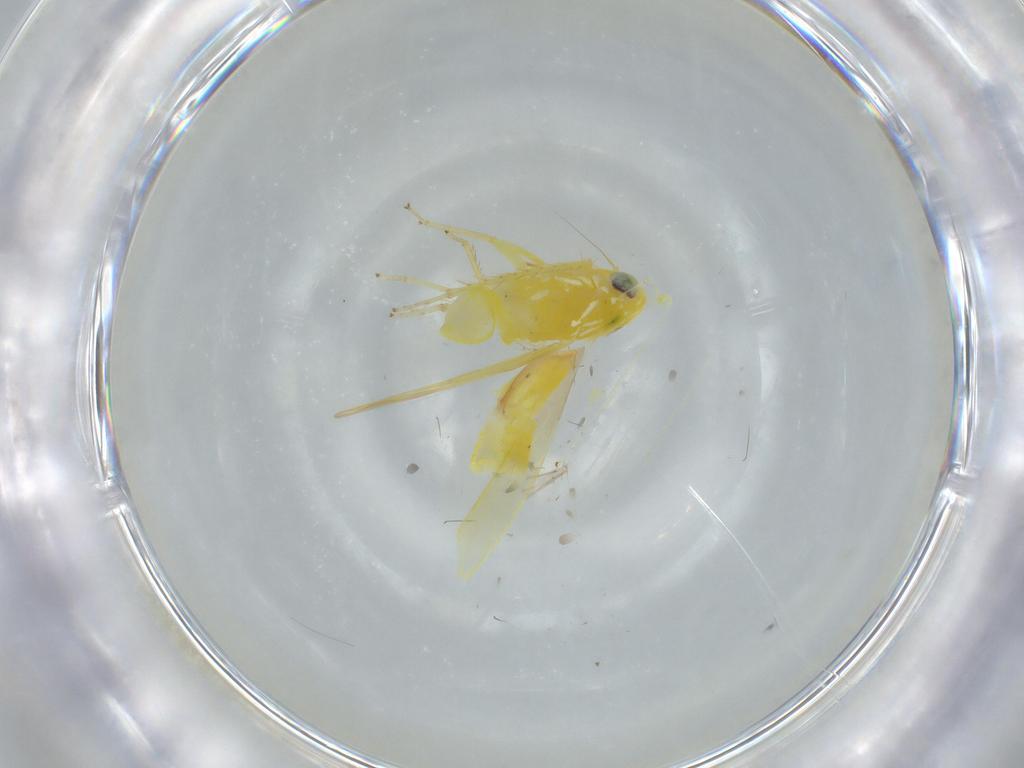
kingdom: Animalia
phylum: Arthropoda
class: Insecta
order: Hemiptera
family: Cicadellidae
